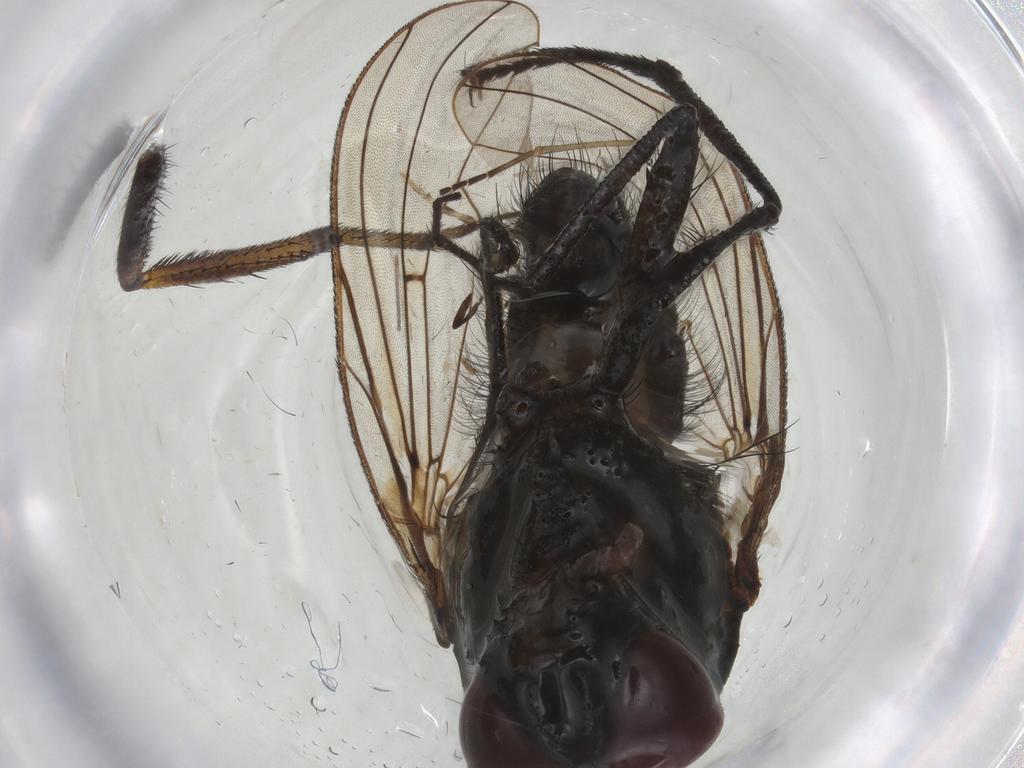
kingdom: Animalia
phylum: Arthropoda
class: Insecta
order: Diptera
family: Anthomyiidae
